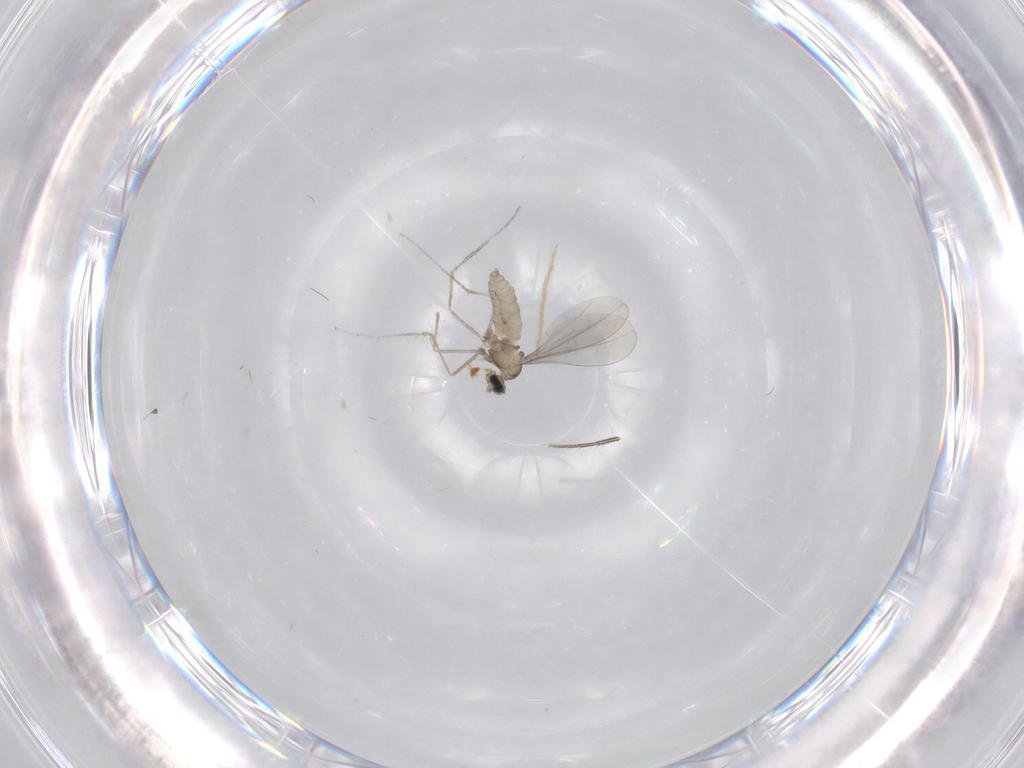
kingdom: Animalia
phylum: Arthropoda
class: Insecta
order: Diptera
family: Cecidomyiidae
